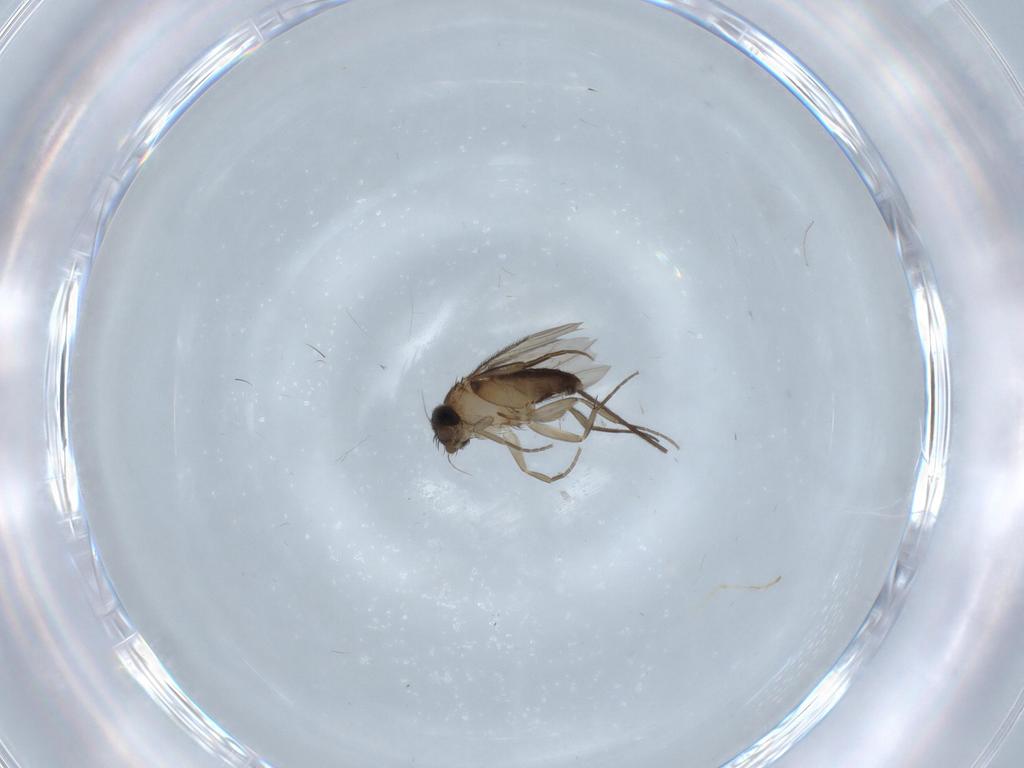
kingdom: Animalia
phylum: Arthropoda
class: Insecta
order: Diptera
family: Phoridae
